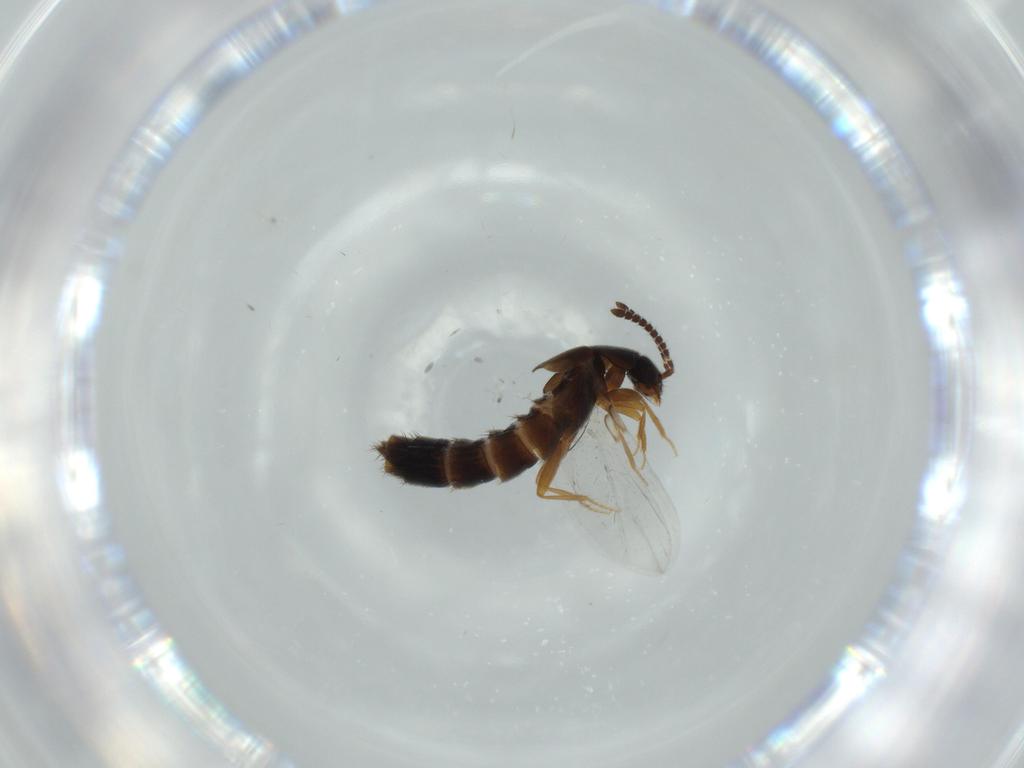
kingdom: Animalia
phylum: Arthropoda
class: Insecta
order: Coleoptera
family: Staphylinidae
